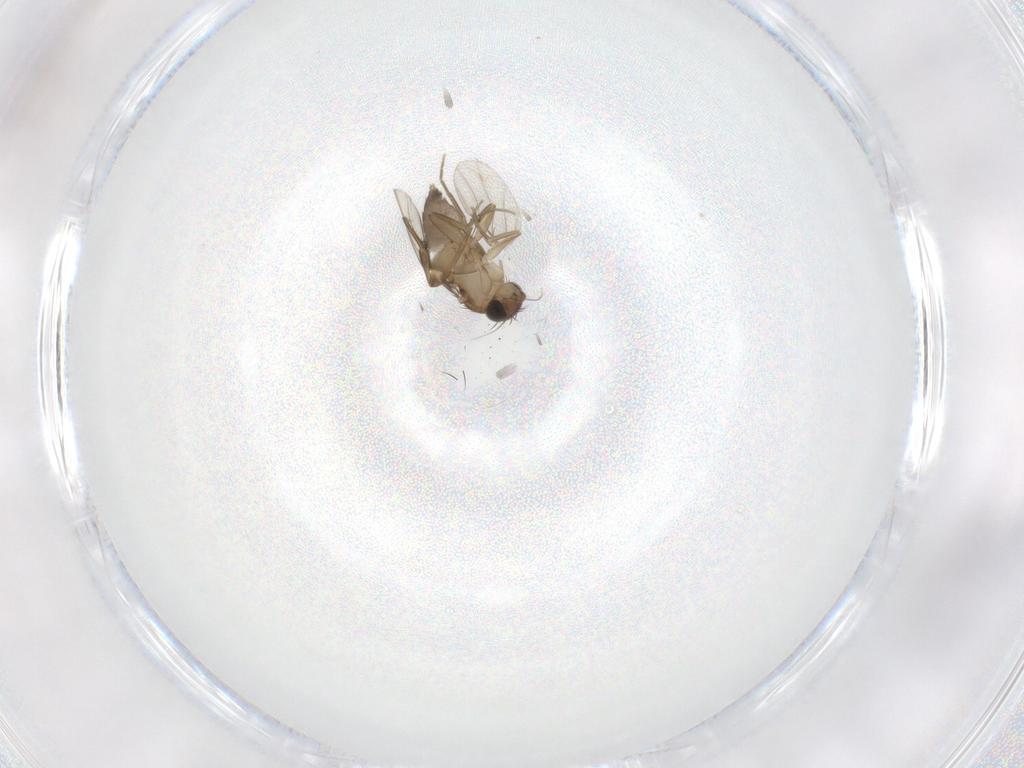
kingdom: Animalia
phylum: Arthropoda
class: Insecta
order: Diptera
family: Phoridae
